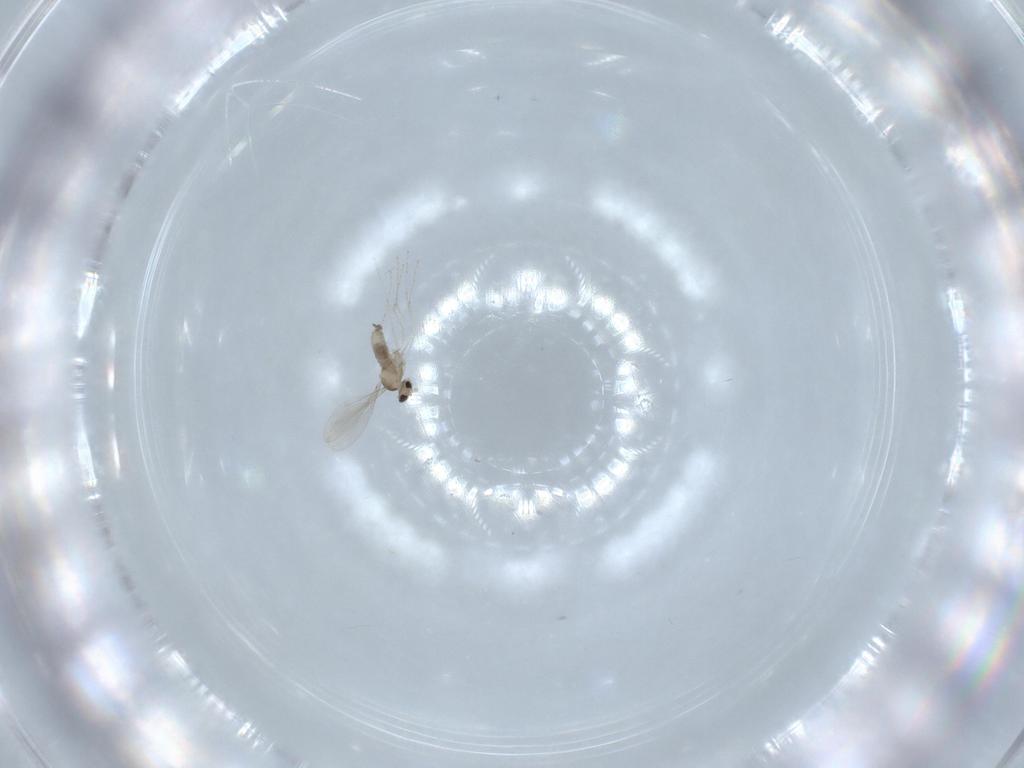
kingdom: Animalia
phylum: Arthropoda
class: Insecta
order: Diptera
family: Cecidomyiidae
